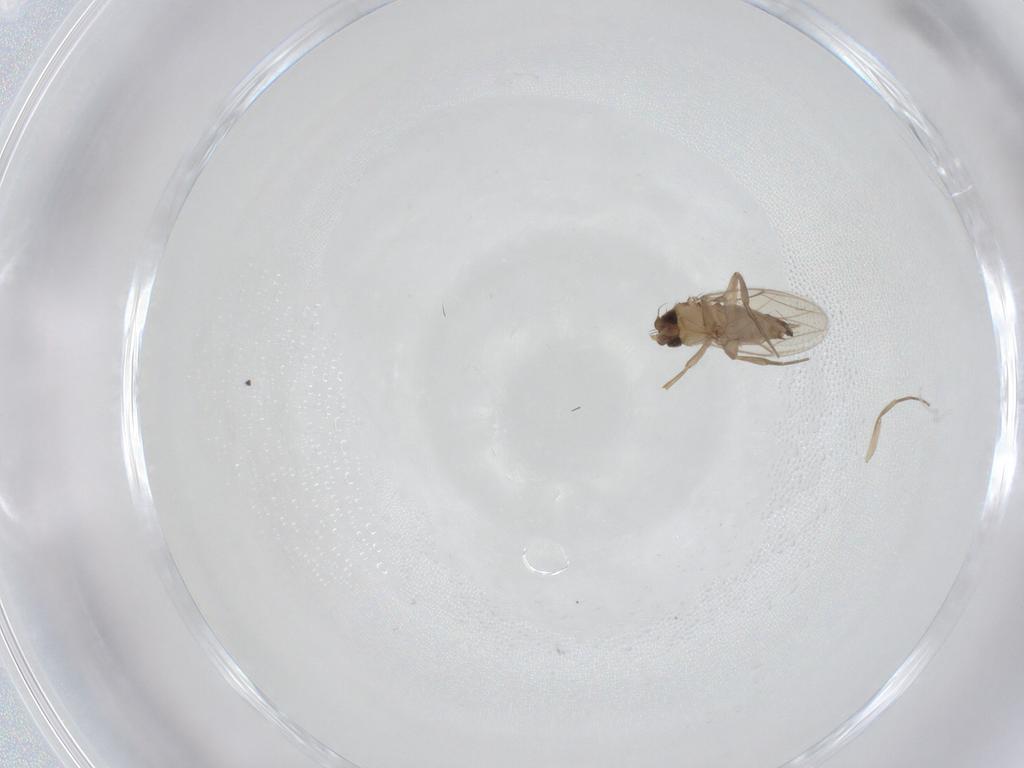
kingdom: Animalia
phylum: Arthropoda
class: Insecta
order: Diptera
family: Phoridae
